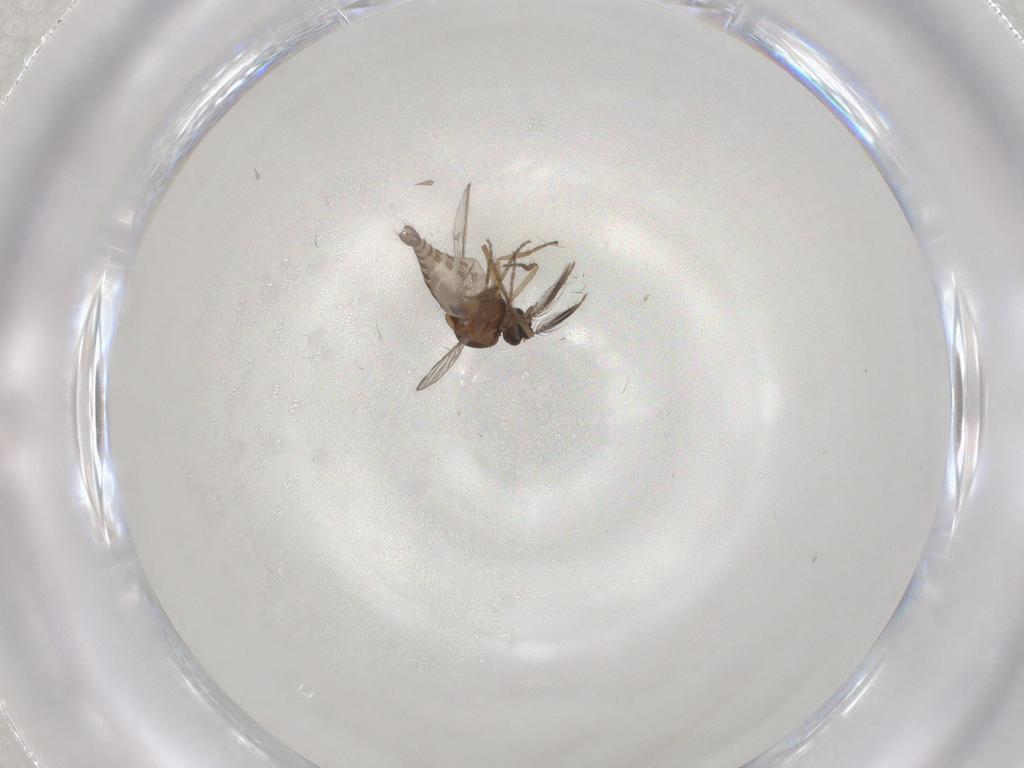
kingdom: Animalia
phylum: Arthropoda
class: Insecta
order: Diptera
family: Ceratopogonidae
